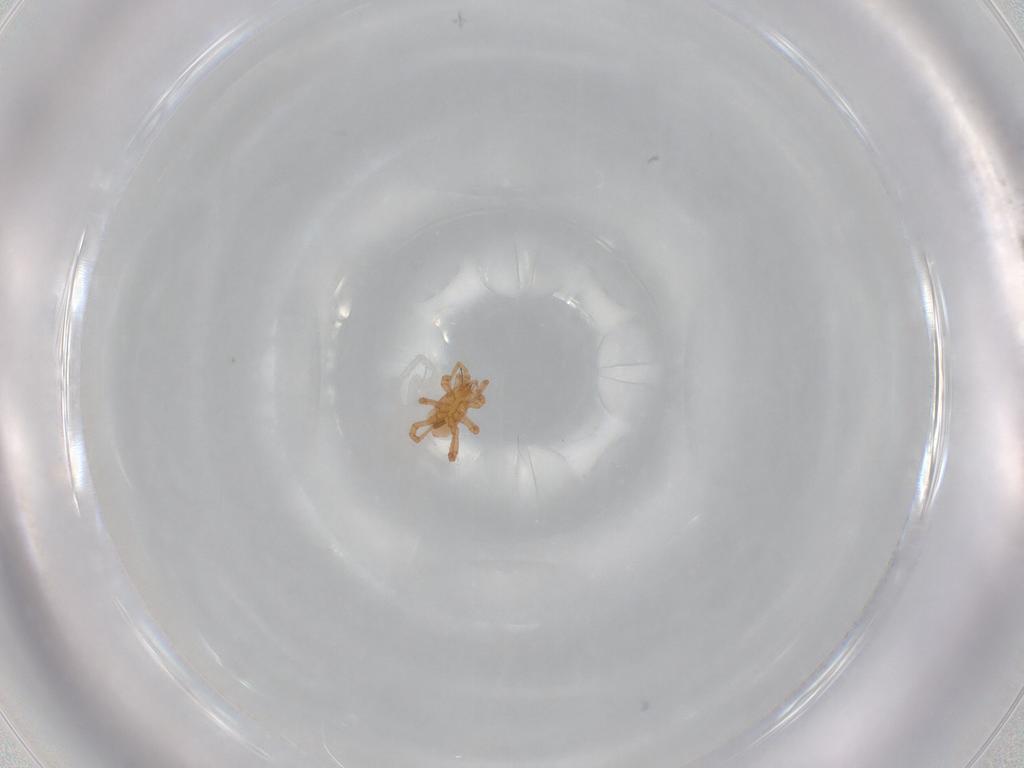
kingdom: Animalia
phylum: Arthropoda
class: Arachnida
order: Mesostigmata
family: Parasitidae
